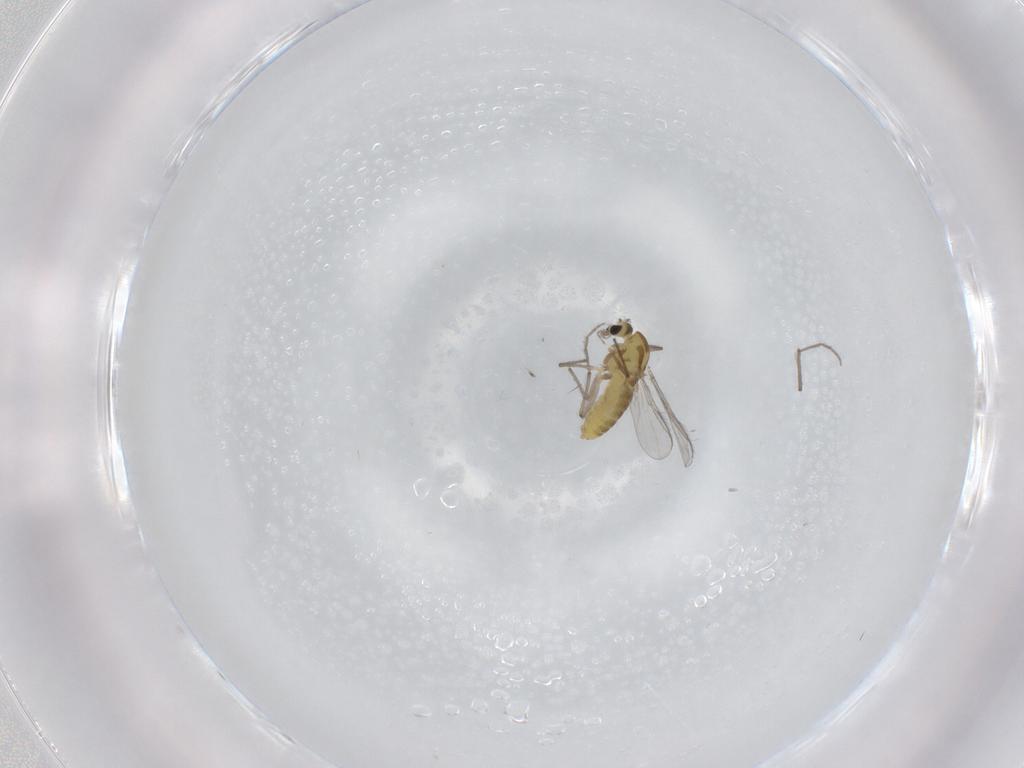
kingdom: Animalia
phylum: Arthropoda
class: Insecta
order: Diptera
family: Chironomidae
